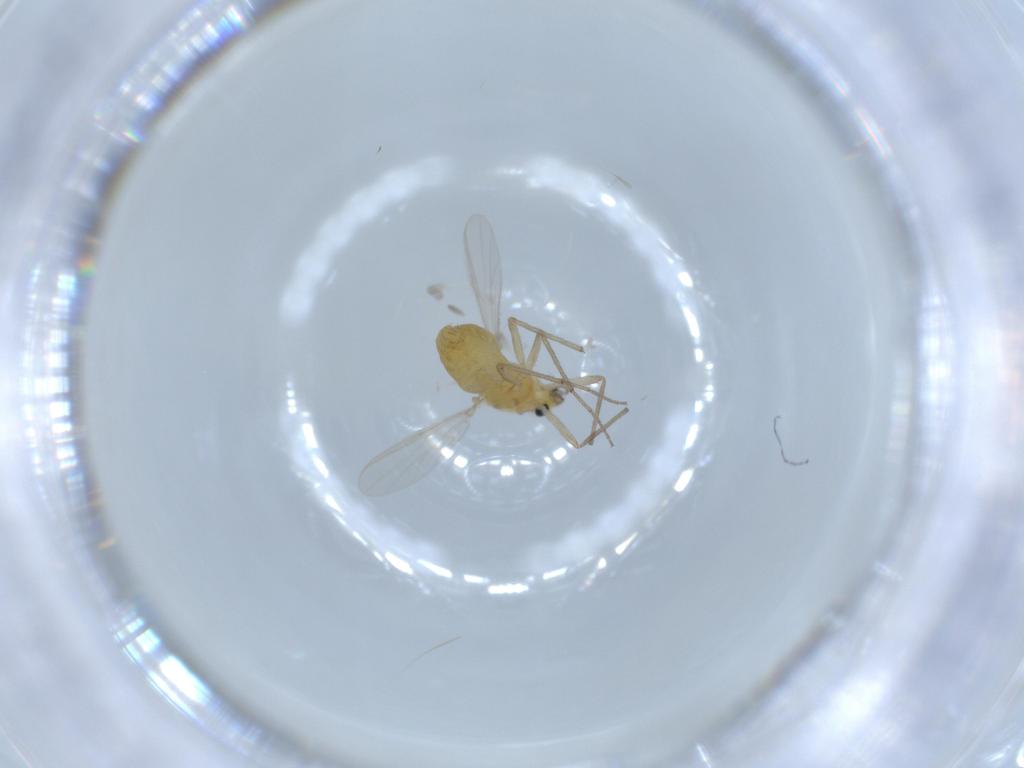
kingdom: Animalia
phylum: Arthropoda
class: Insecta
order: Diptera
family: Chironomidae
